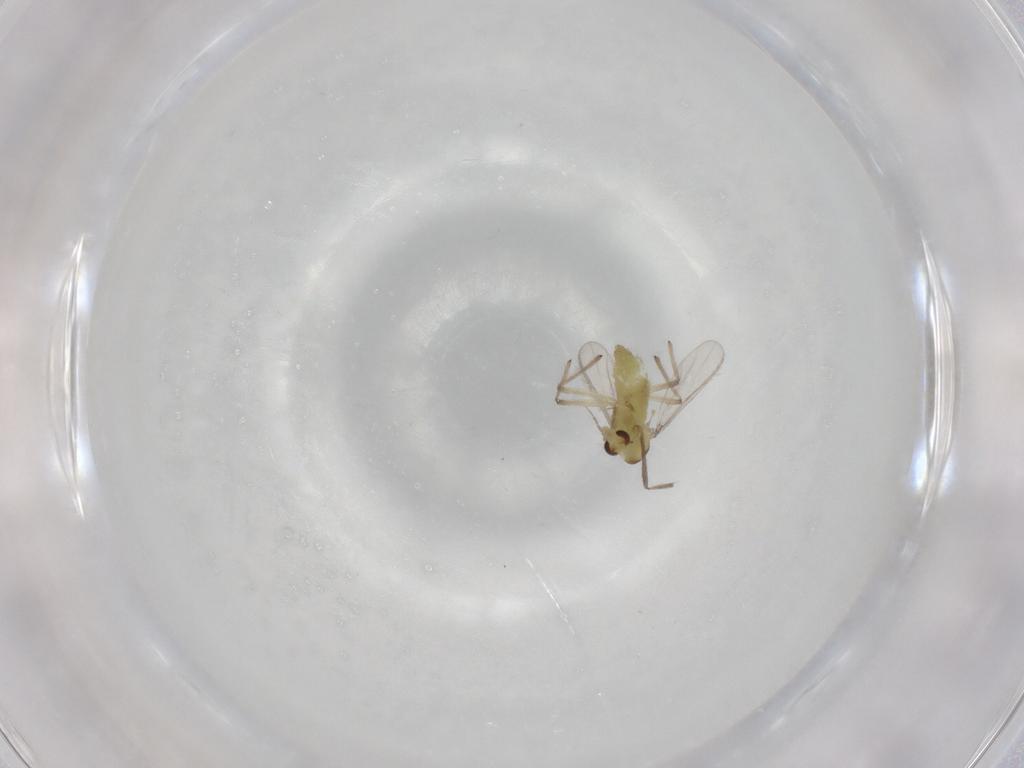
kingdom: Animalia
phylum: Arthropoda
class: Insecta
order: Diptera
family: Chironomidae
